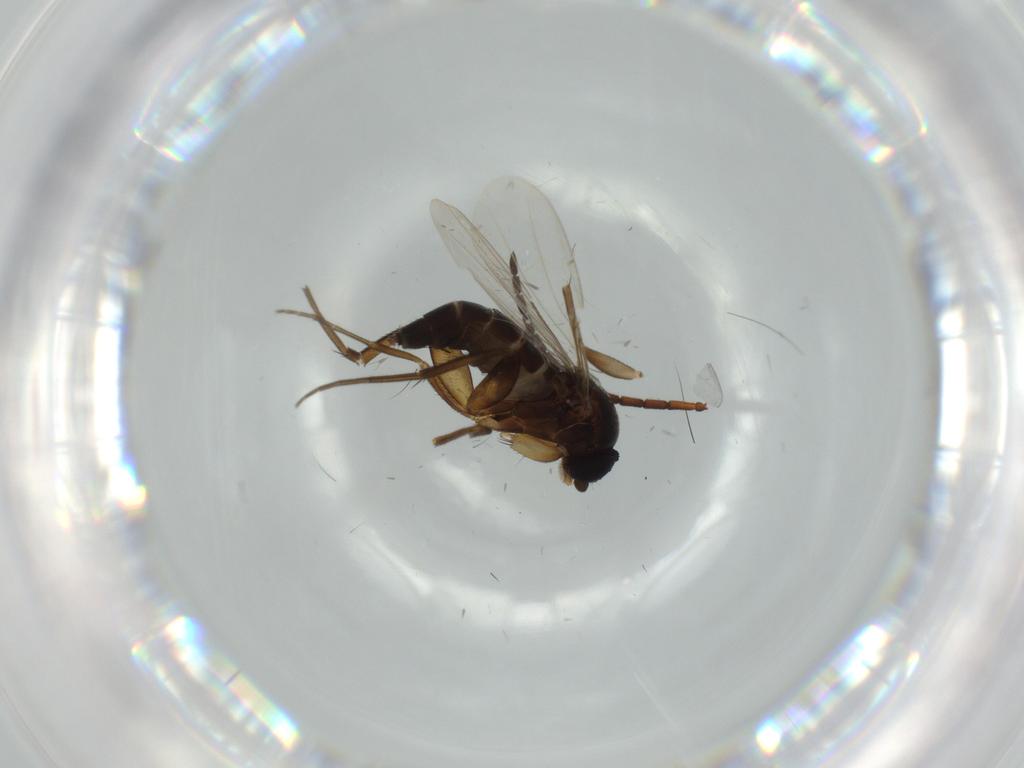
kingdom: Animalia
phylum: Arthropoda
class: Insecta
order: Diptera
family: Phoridae
